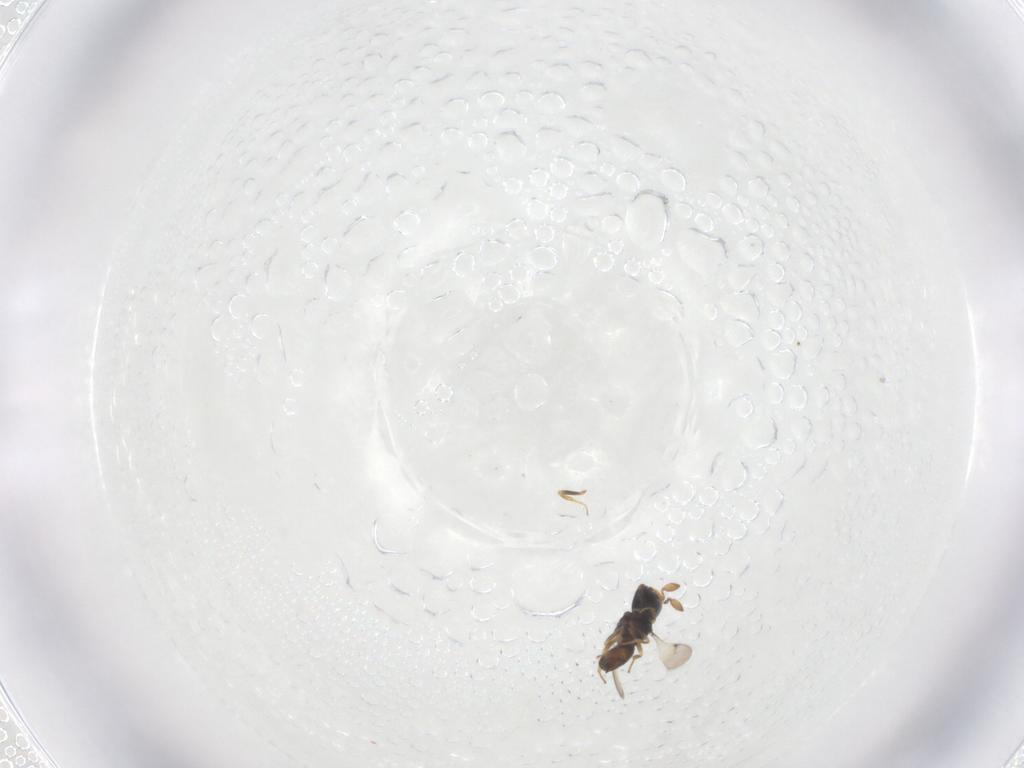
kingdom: Animalia
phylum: Arthropoda
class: Insecta
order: Hymenoptera
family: Scelionidae
